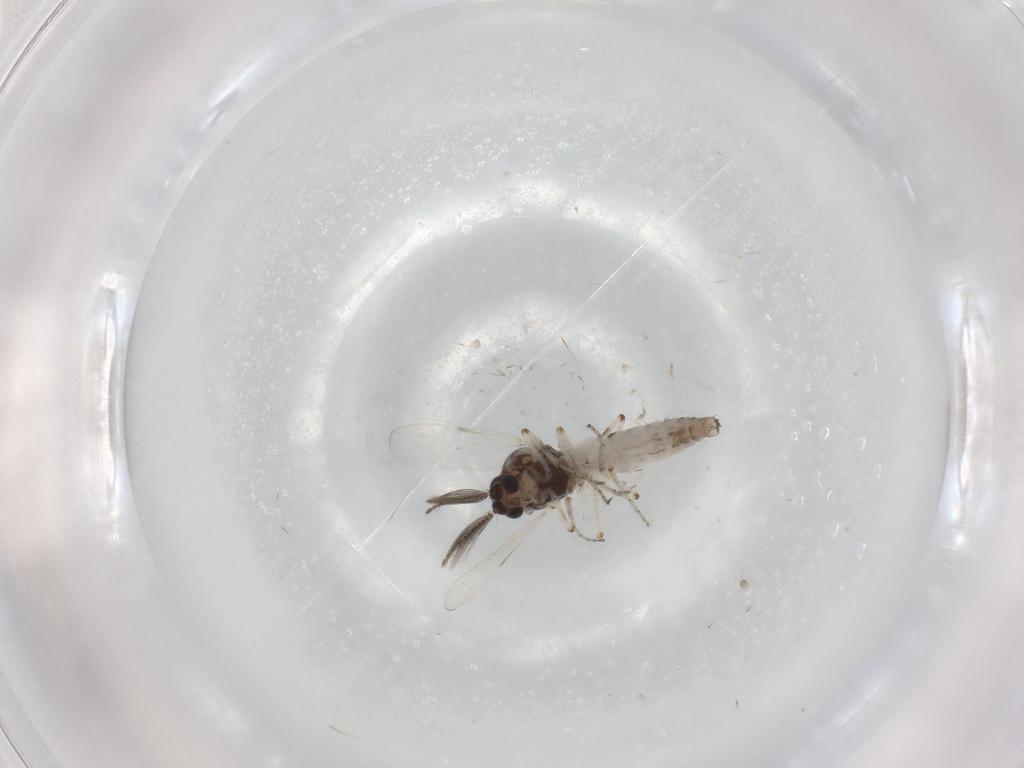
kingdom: Animalia
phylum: Arthropoda
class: Insecta
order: Diptera
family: Ceratopogonidae
